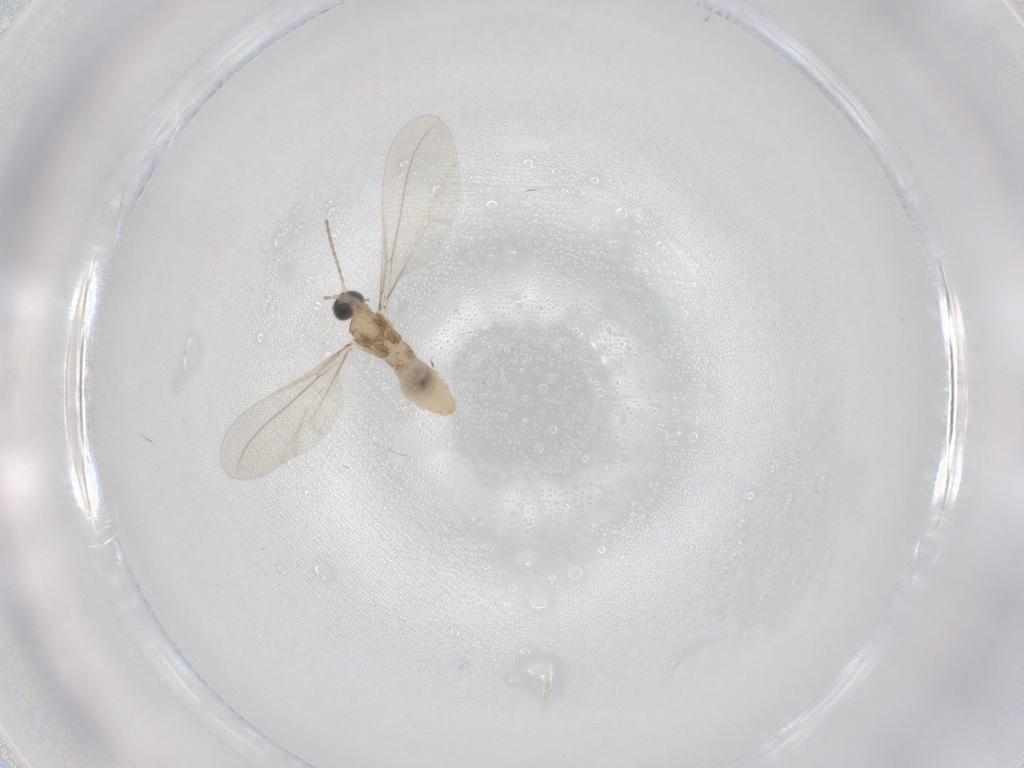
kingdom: Animalia
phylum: Arthropoda
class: Insecta
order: Diptera
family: Cecidomyiidae
